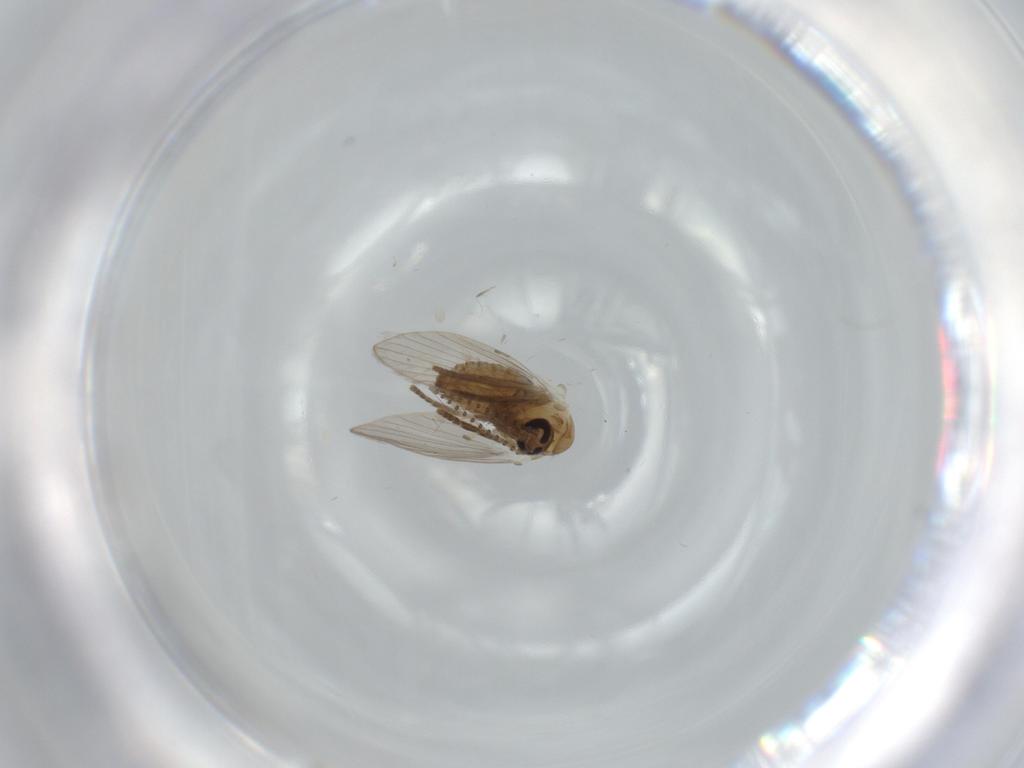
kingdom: Animalia
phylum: Arthropoda
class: Insecta
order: Diptera
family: Psychodidae
